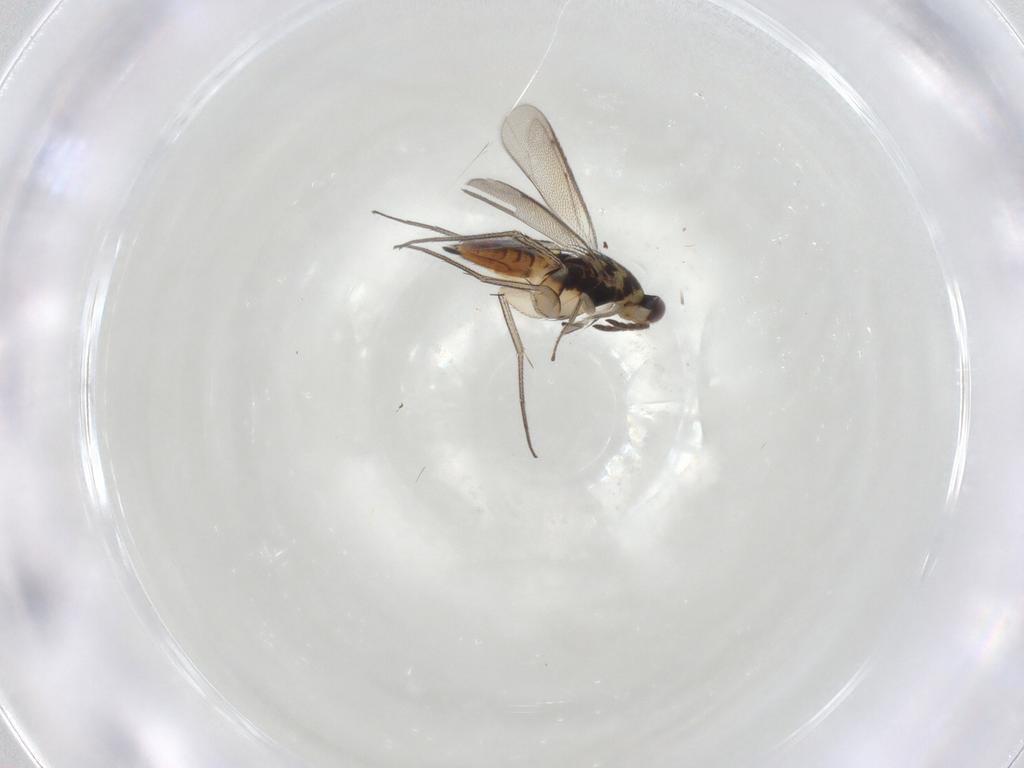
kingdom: Animalia
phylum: Arthropoda
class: Insecta
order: Hymenoptera
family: Eulophidae
